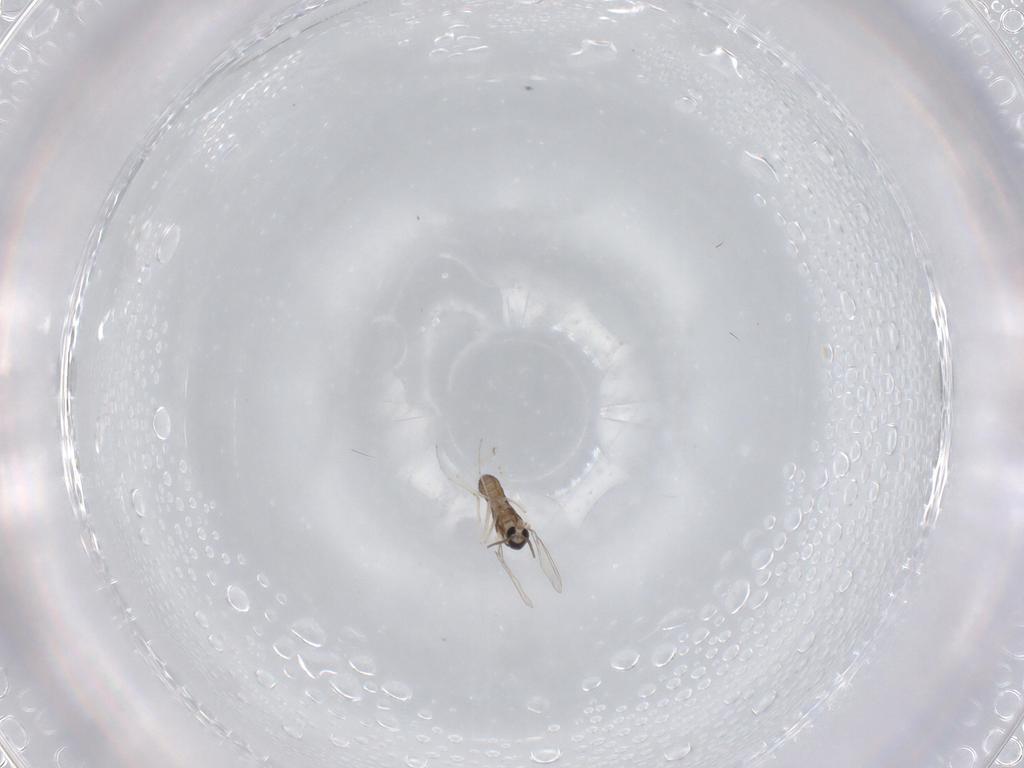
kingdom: Animalia
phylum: Arthropoda
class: Insecta
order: Diptera
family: Cecidomyiidae
